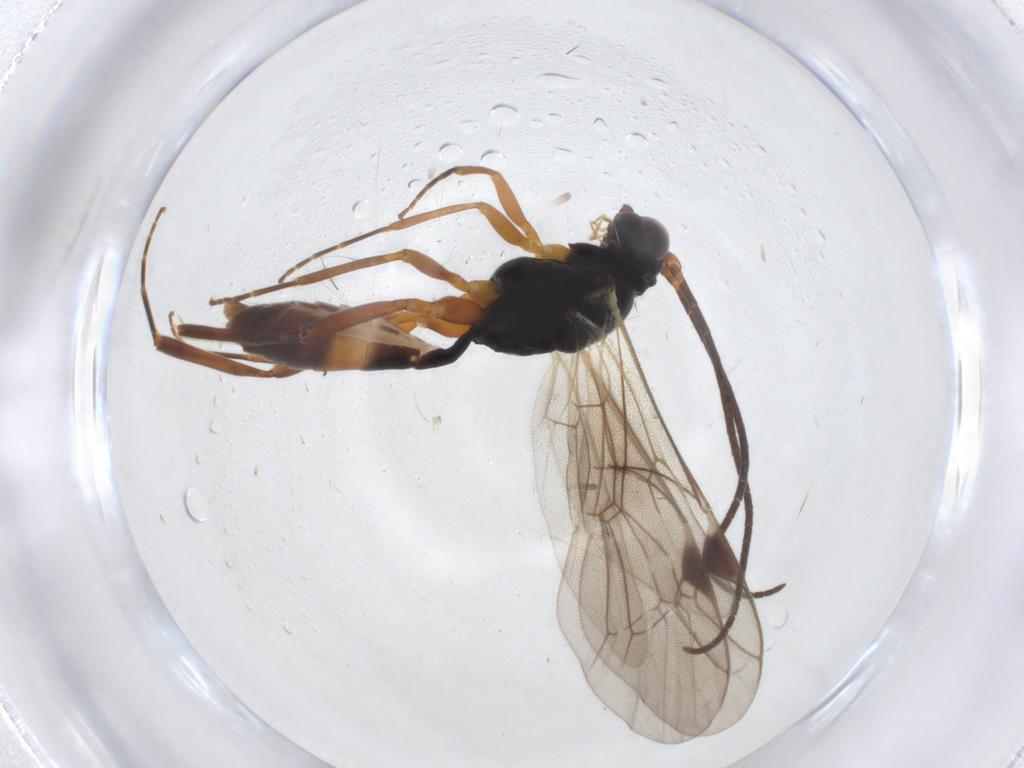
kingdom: Animalia
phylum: Arthropoda
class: Insecta
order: Hymenoptera
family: Ichneumonidae
